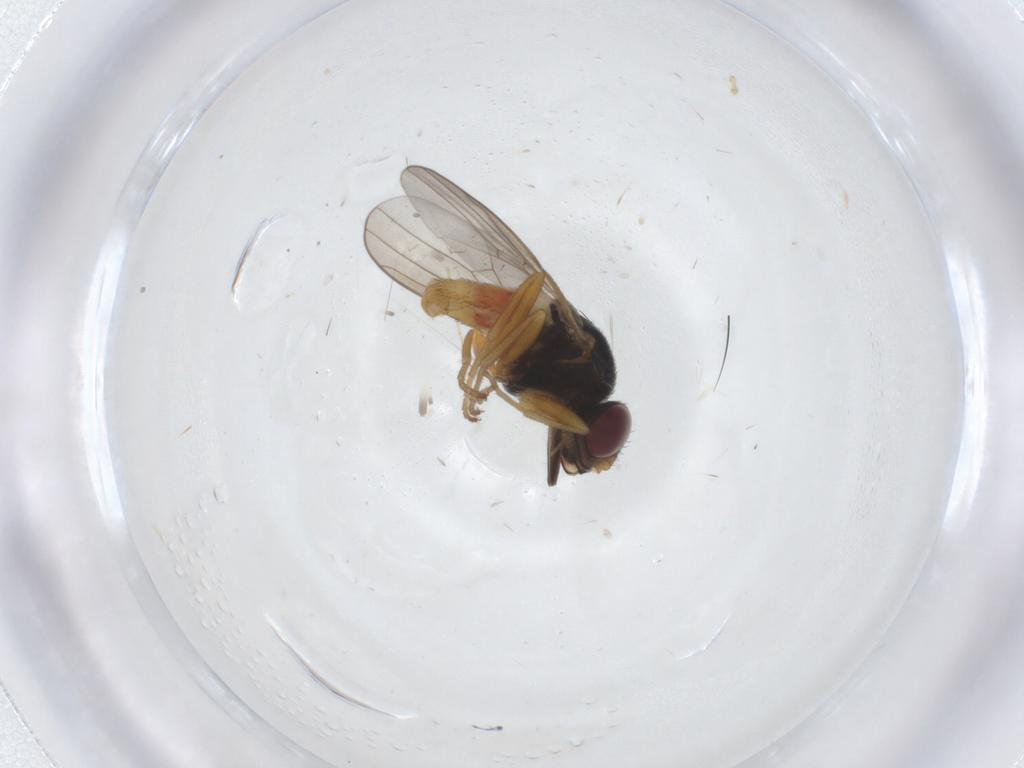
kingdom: Animalia
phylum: Arthropoda
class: Insecta
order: Diptera
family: Chloropidae
